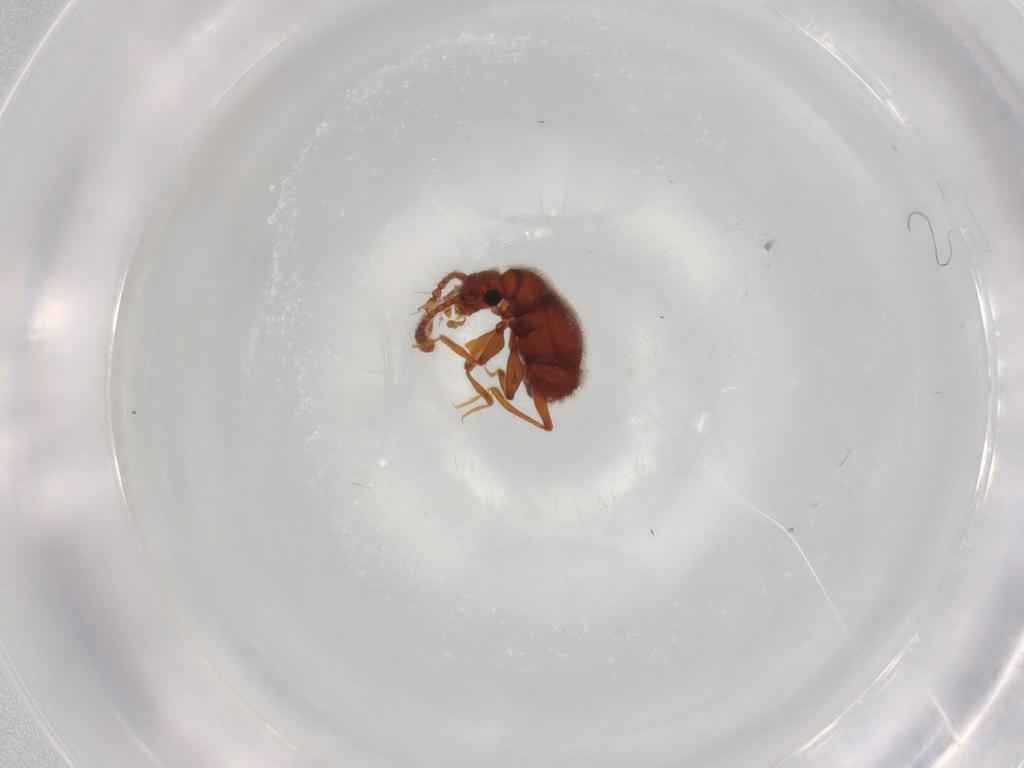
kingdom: Animalia
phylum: Arthropoda
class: Insecta
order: Coleoptera
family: Staphylinidae
